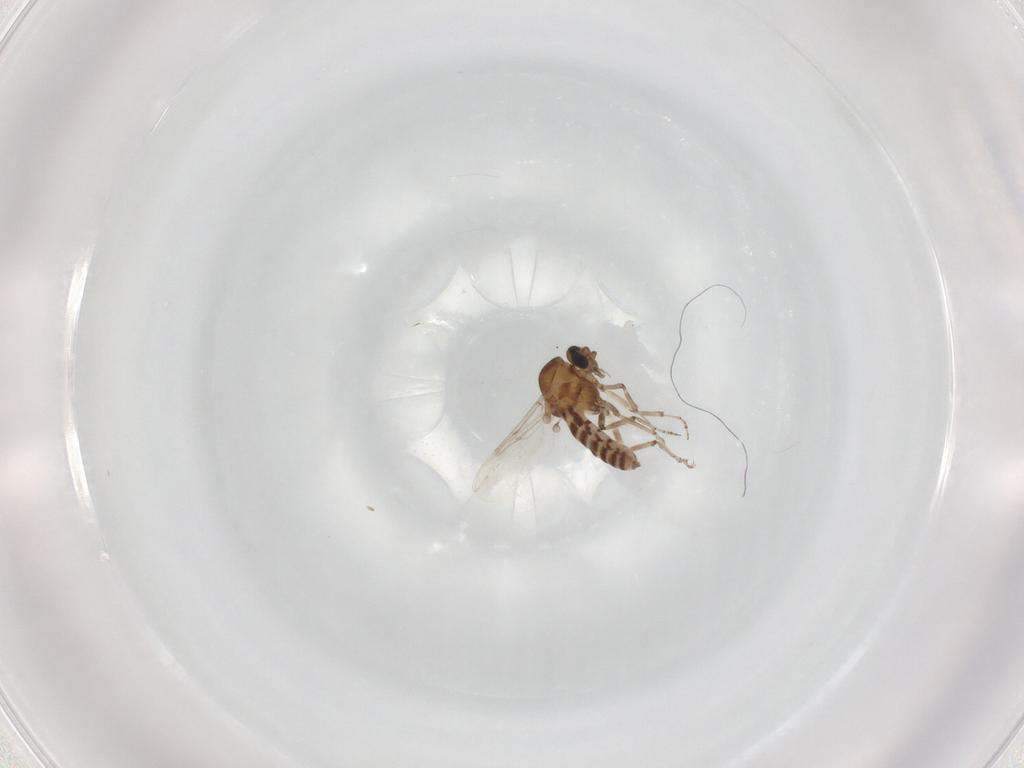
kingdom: Animalia
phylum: Arthropoda
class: Insecta
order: Diptera
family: Ceratopogonidae
